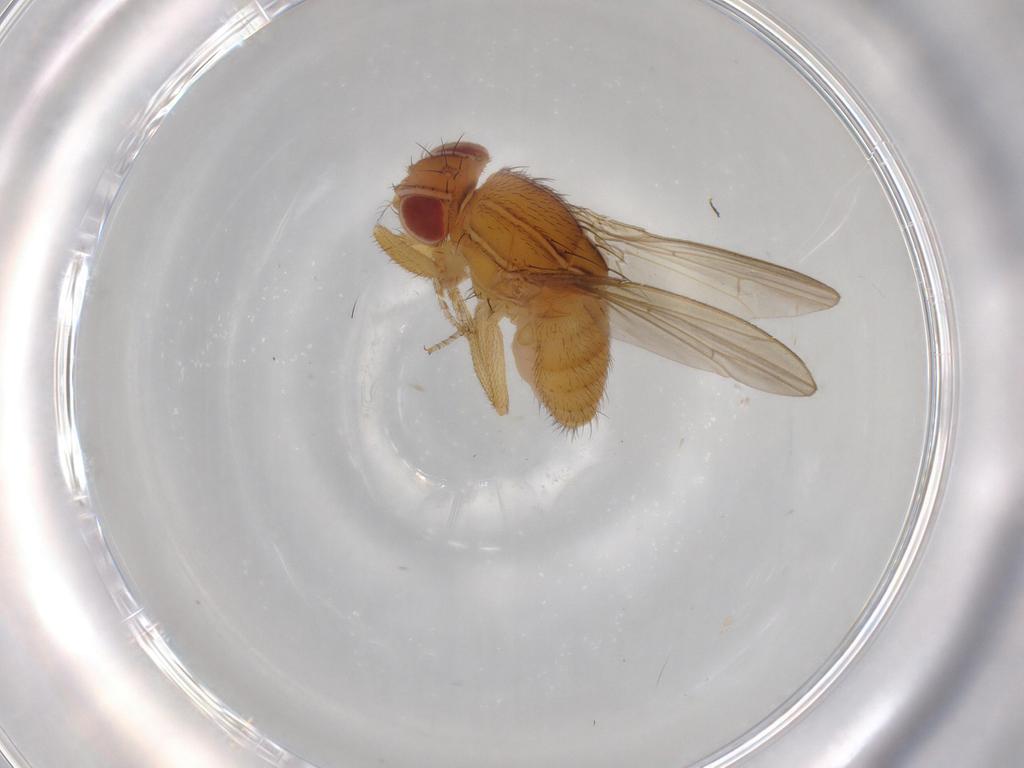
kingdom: Animalia
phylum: Arthropoda
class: Insecta
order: Diptera
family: Drosophilidae
